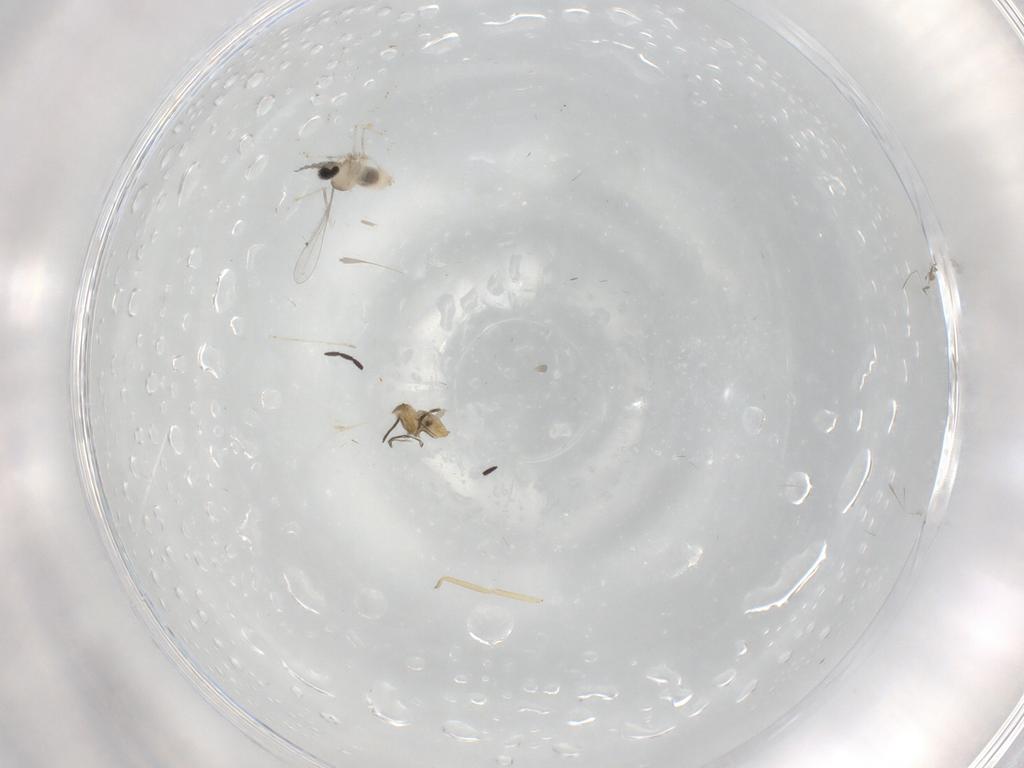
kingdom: Animalia
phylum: Arthropoda
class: Insecta
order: Diptera
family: Cecidomyiidae
